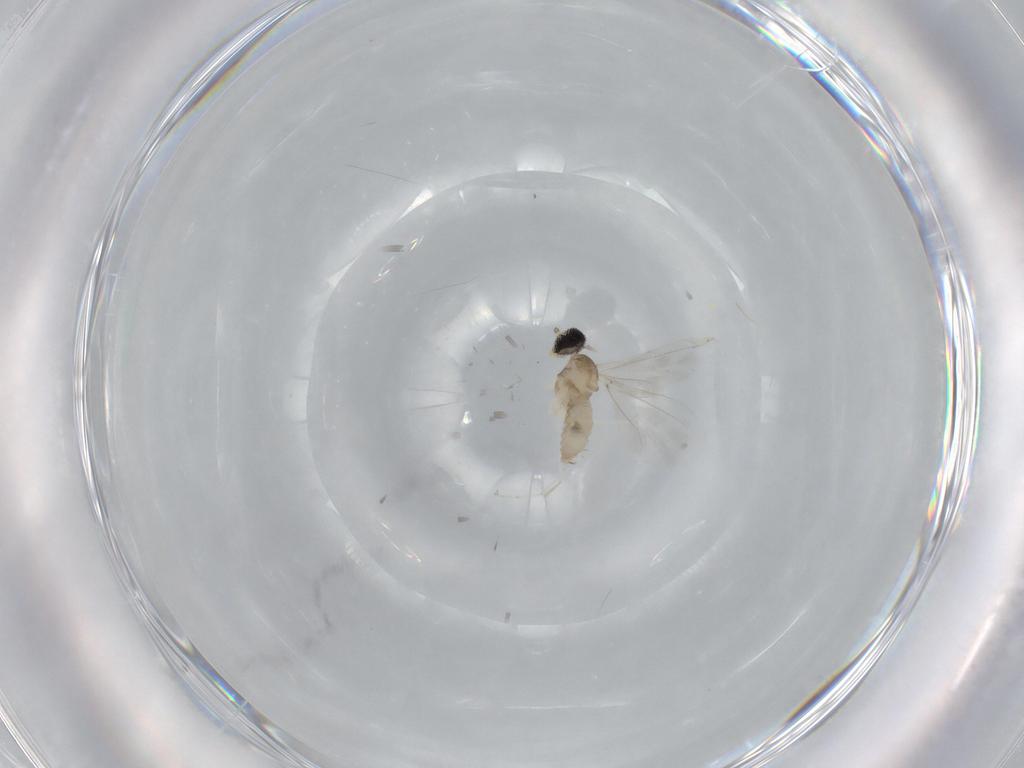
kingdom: Animalia
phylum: Arthropoda
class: Insecta
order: Diptera
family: Cecidomyiidae
